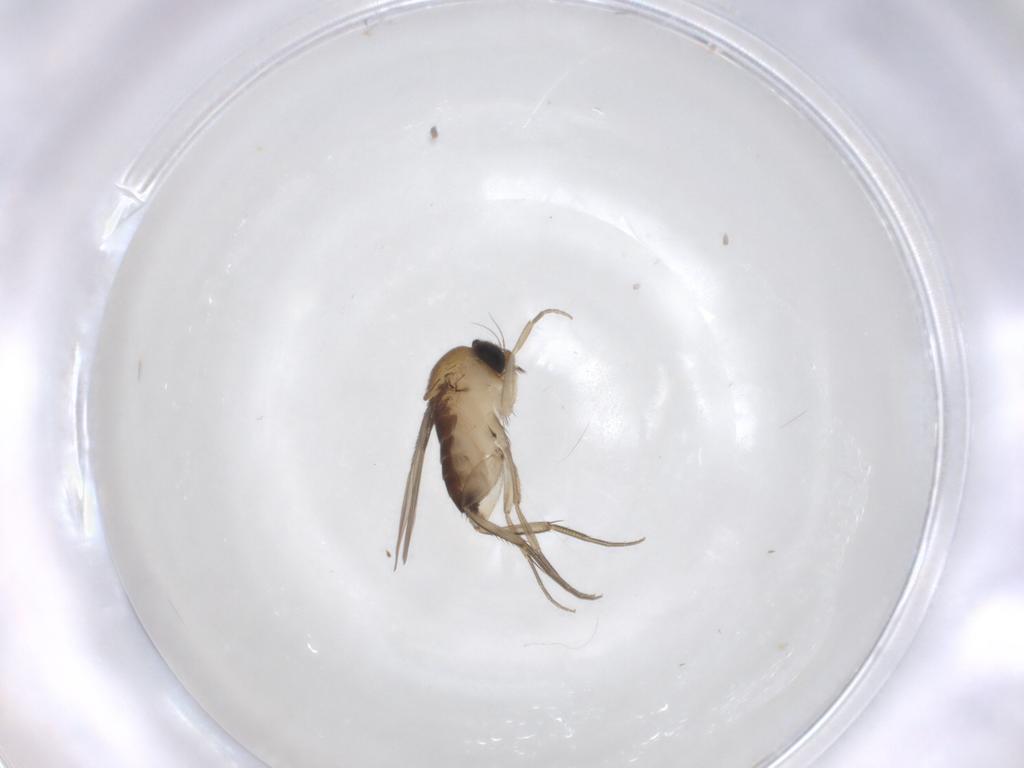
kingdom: Animalia
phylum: Arthropoda
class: Insecta
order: Diptera
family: Phoridae
